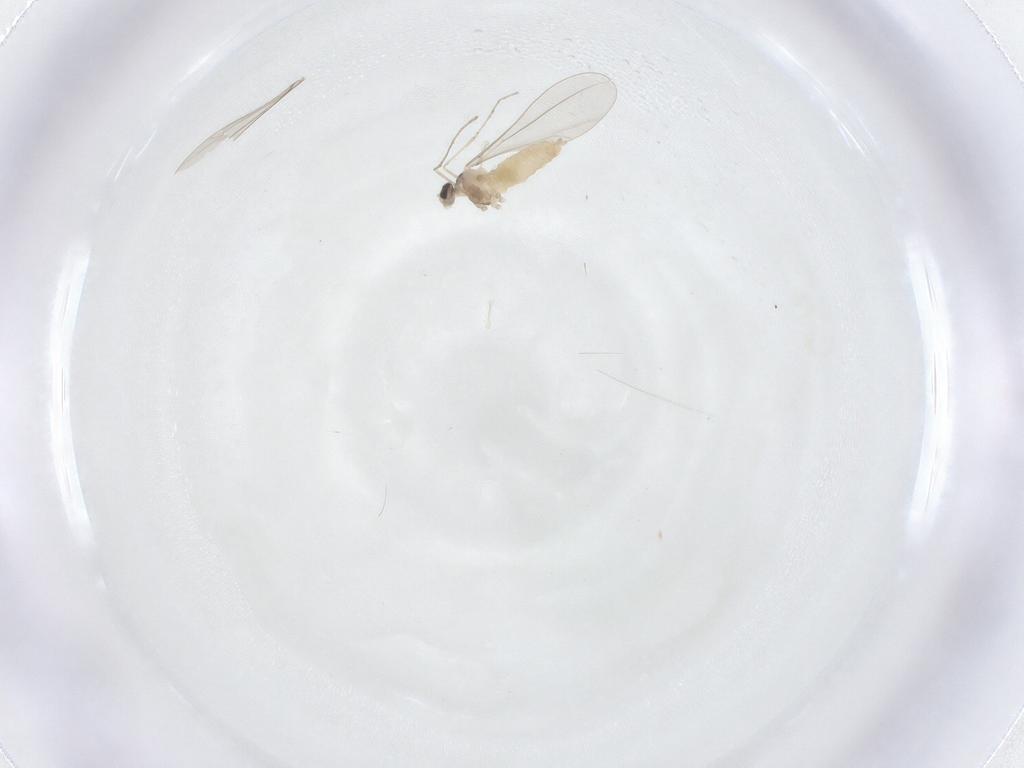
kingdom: Animalia
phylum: Arthropoda
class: Insecta
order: Diptera
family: Cecidomyiidae
